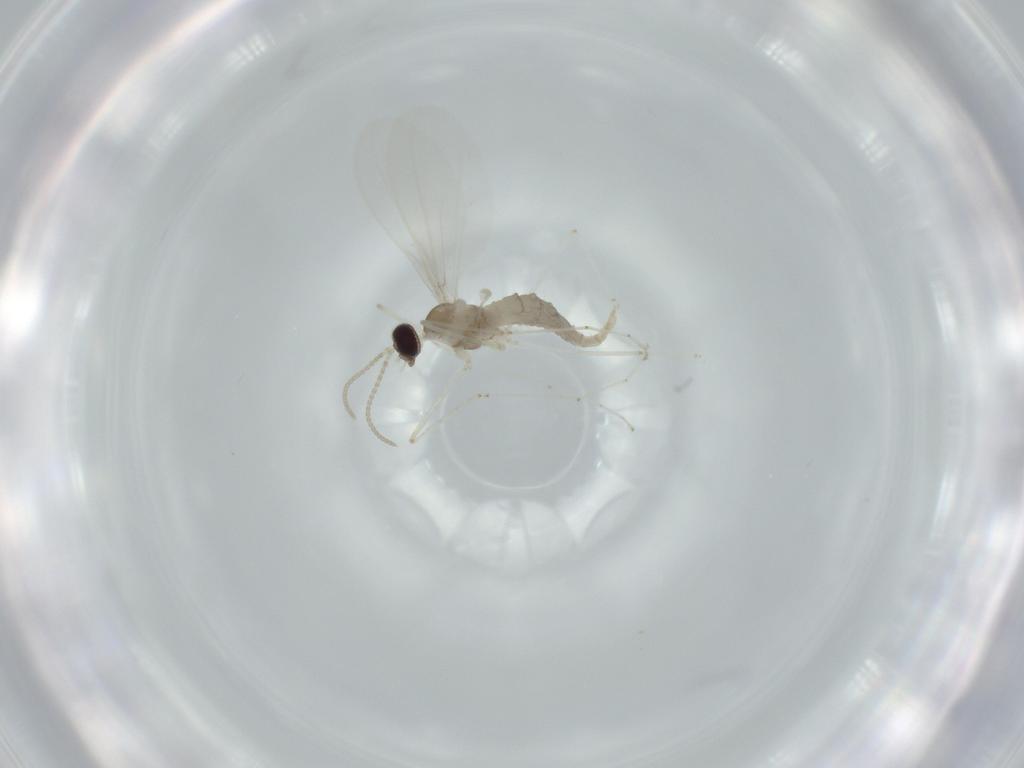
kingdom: Animalia
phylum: Arthropoda
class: Insecta
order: Diptera
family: Cecidomyiidae
